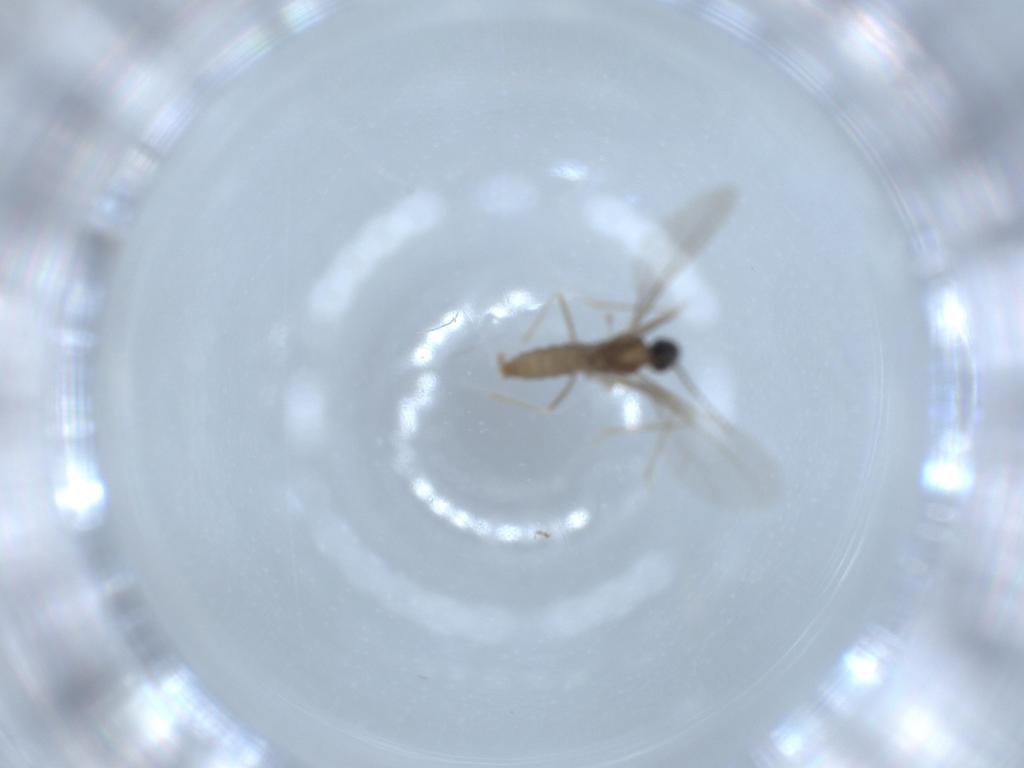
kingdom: Animalia
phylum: Arthropoda
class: Insecta
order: Diptera
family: Cecidomyiidae
